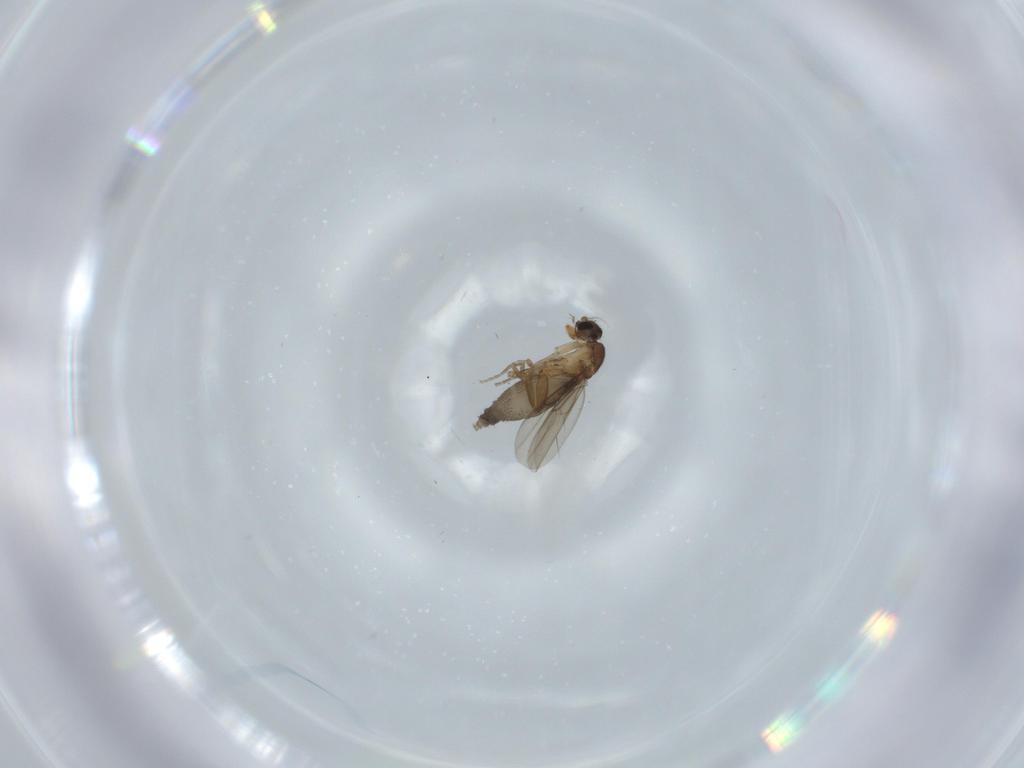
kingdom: Animalia
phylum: Arthropoda
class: Insecta
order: Diptera
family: Phoridae
